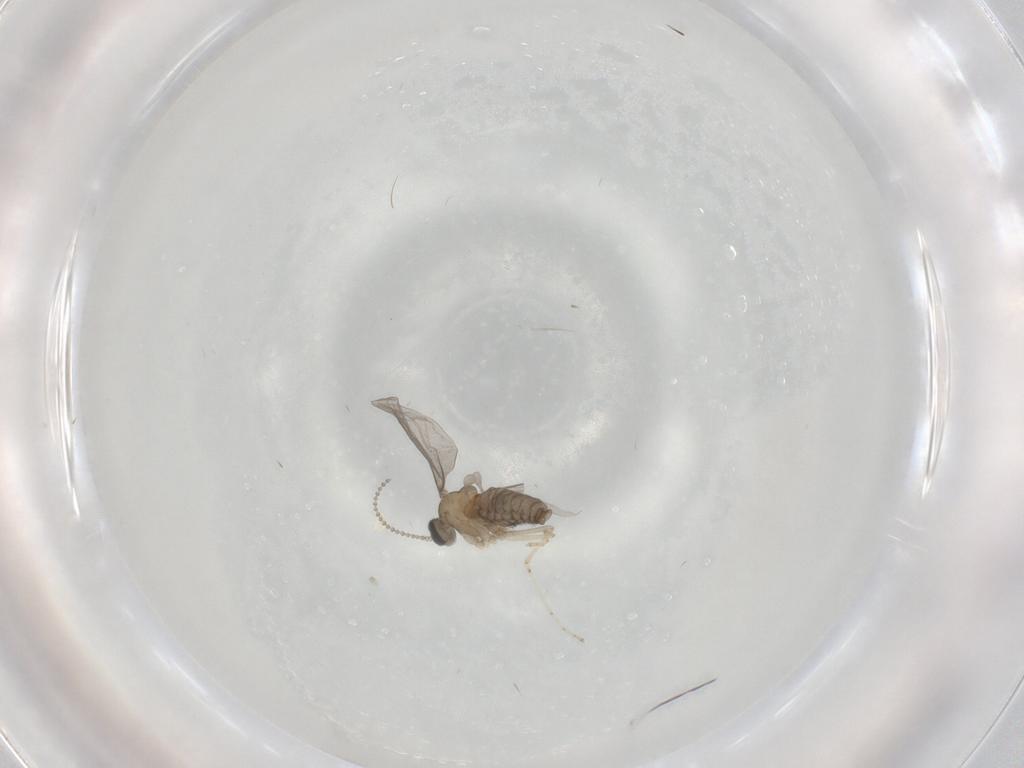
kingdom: Animalia
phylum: Arthropoda
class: Insecta
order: Diptera
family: Cecidomyiidae
